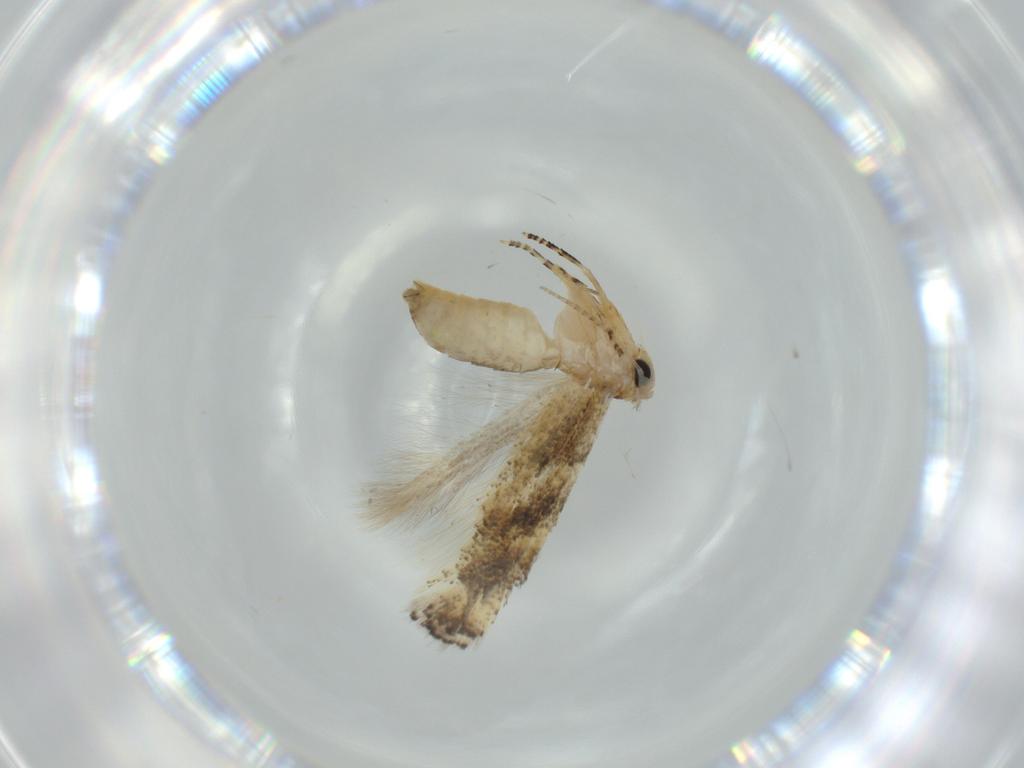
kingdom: Animalia
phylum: Arthropoda
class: Insecta
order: Lepidoptera
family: Bucculatricidae
